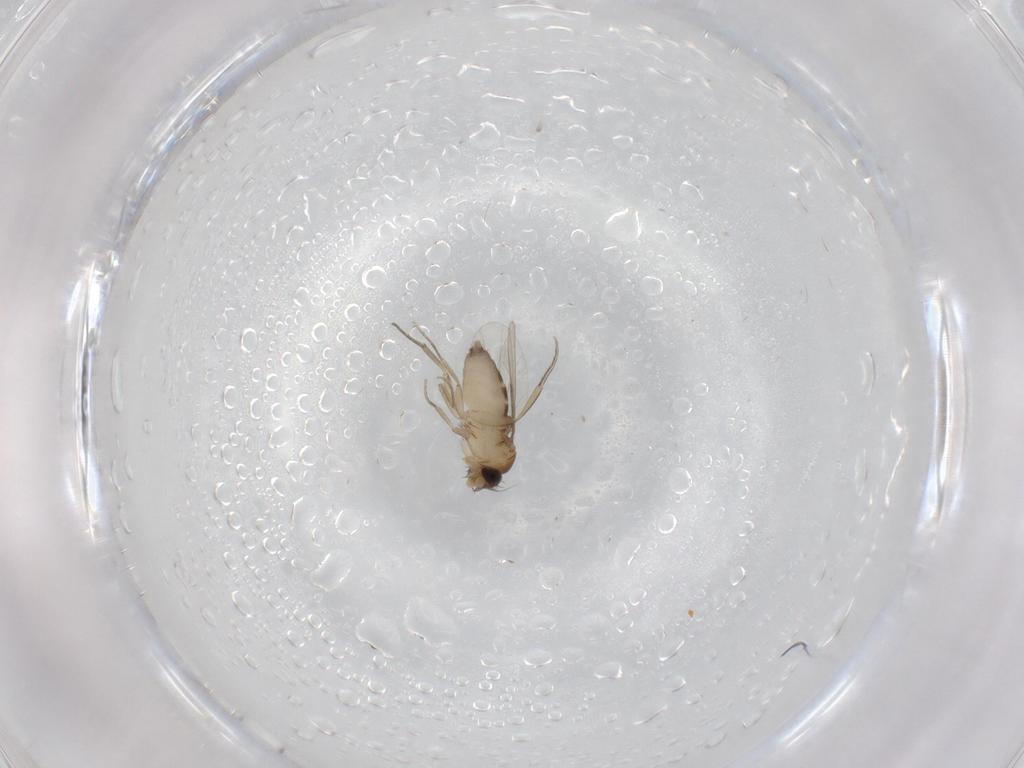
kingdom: Animalia
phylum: Arthropoda
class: Insecta
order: Diptera
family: Phoridae
